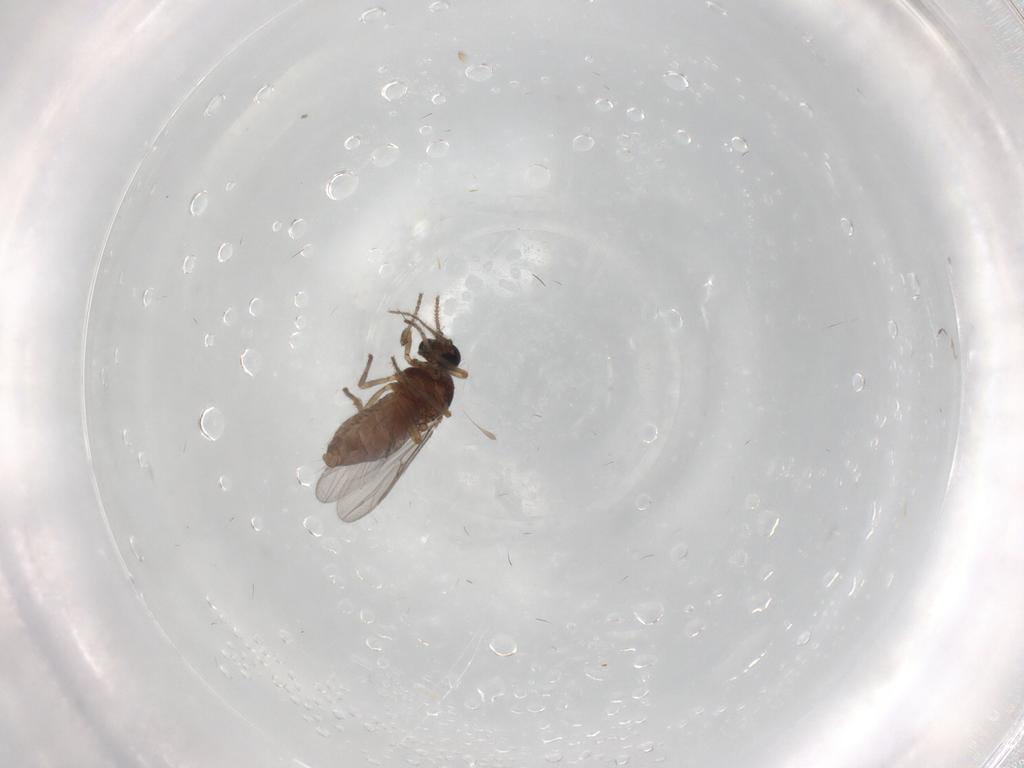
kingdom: Animalia
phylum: Arthropoda
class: Insecta
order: Diptera
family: Ceratopogonidae
